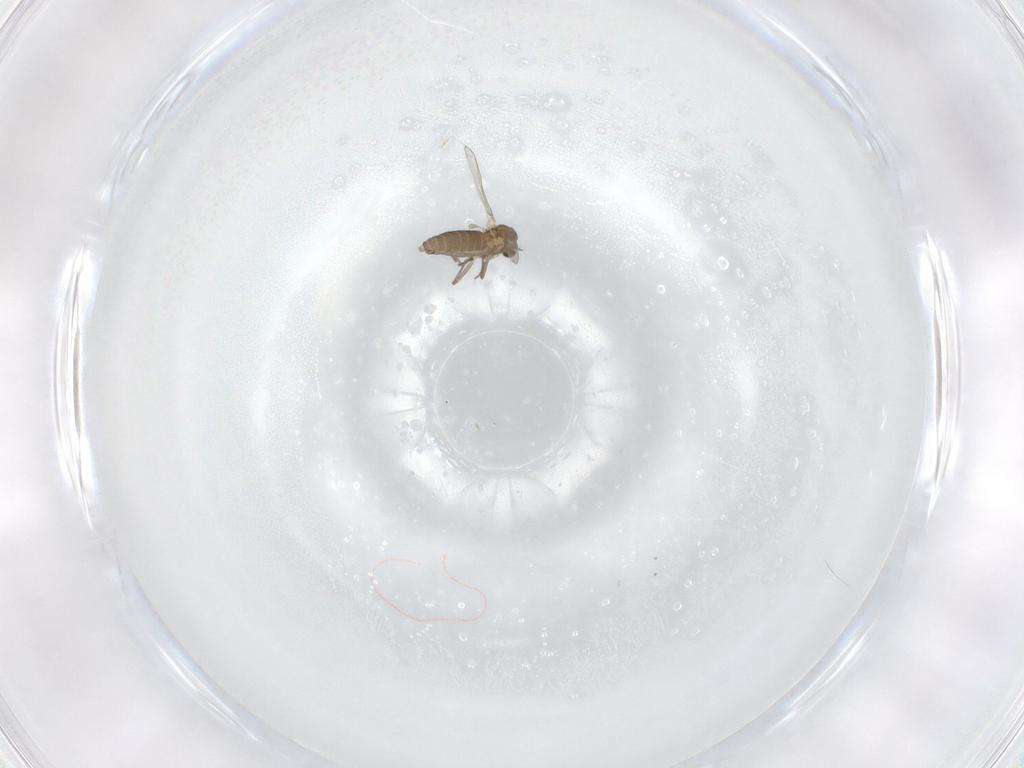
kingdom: Animalia
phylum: Arthropoda
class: Insecta
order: Diptera
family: Chironomidae
